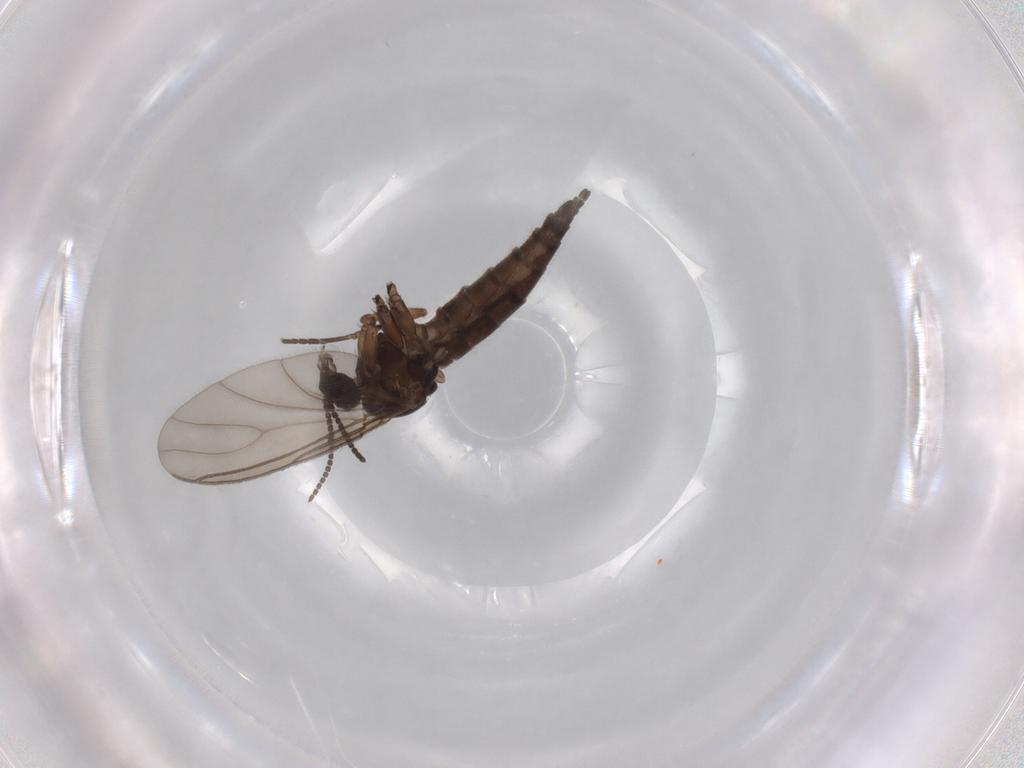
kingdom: Animalia
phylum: Arthropoda
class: Insecta
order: Diptera
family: Sciaridae
